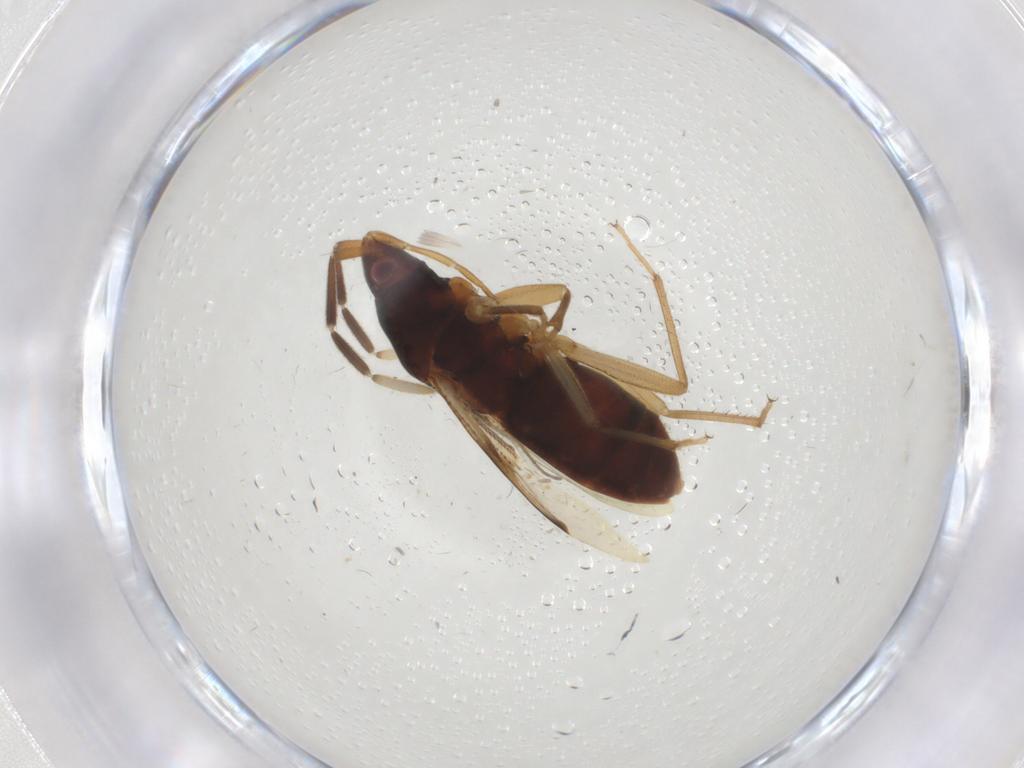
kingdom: Animalia
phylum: Arthropoda
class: Insecta
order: Hemiptera
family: Rhyparochromidae
